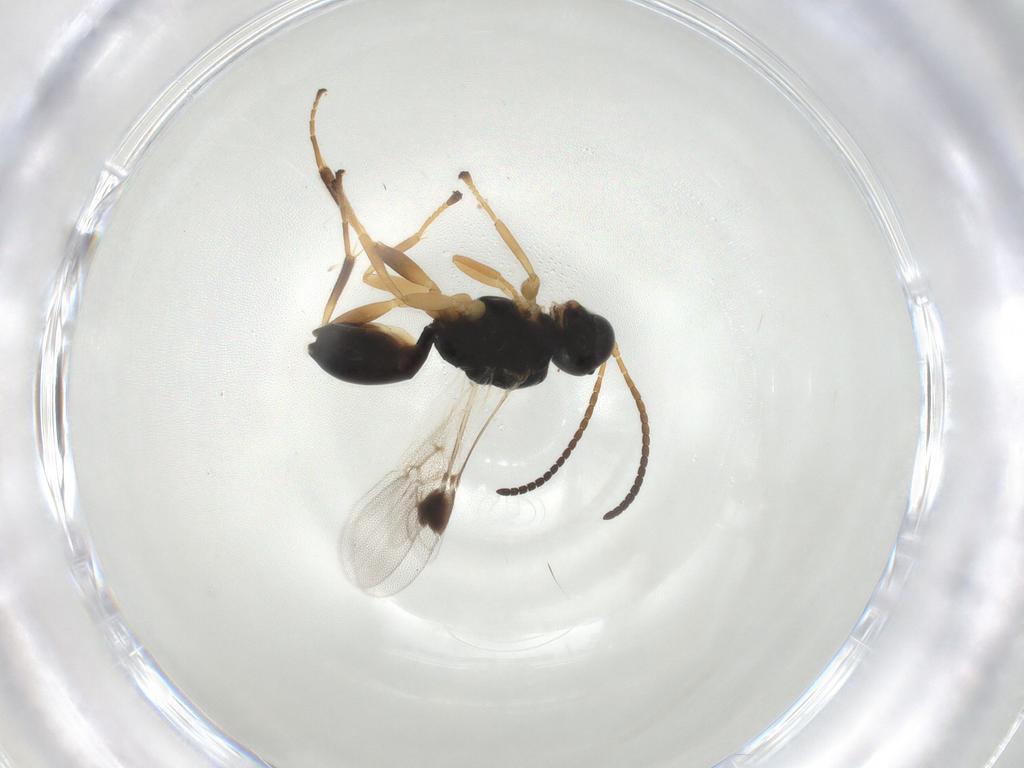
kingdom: Animalia
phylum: Arthropoda
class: Insecta
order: Hymenoptera
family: Braconidae
